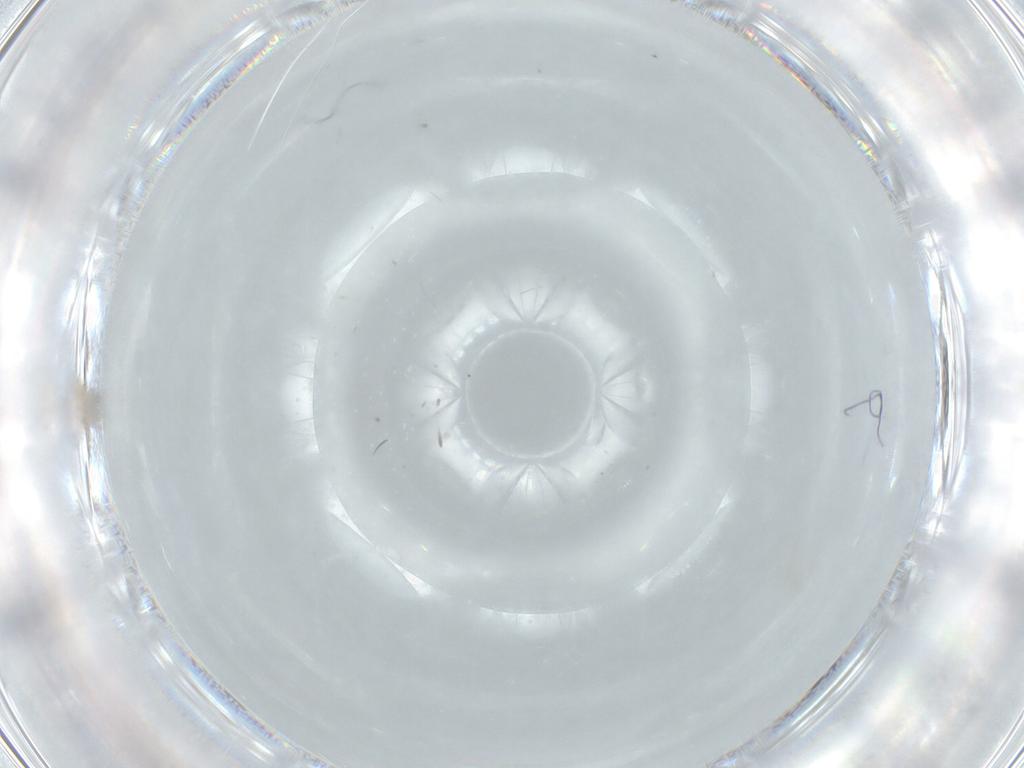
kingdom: Animalia
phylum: Arthropoda
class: Insecta
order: Hemiptera
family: Aphididae
